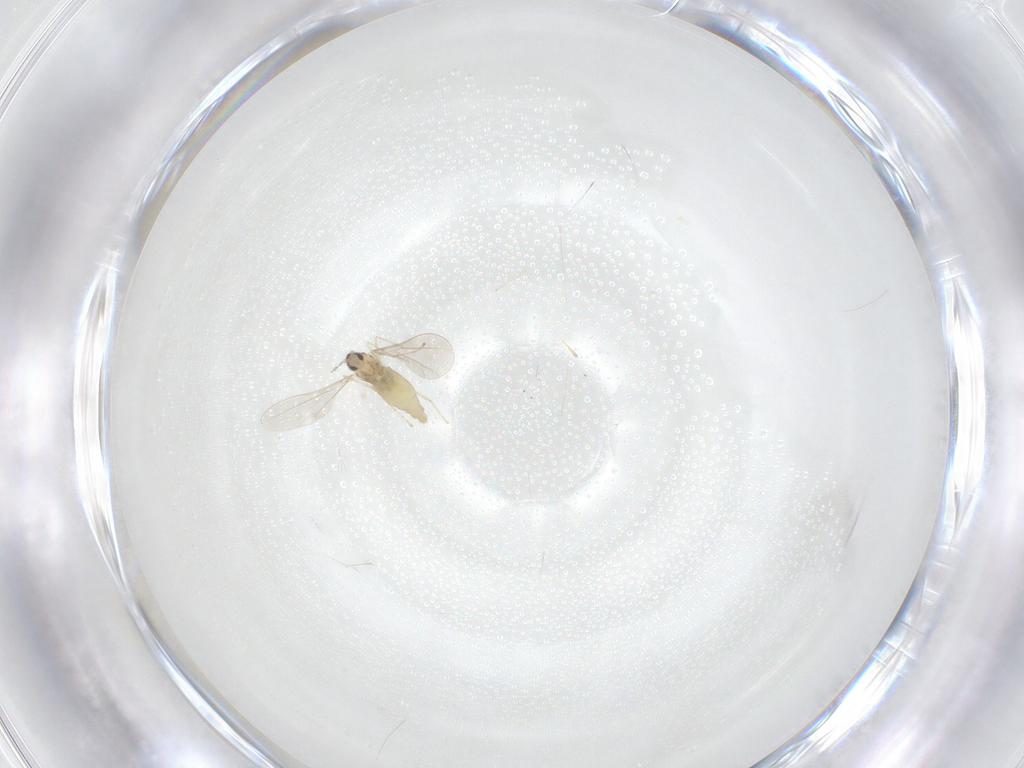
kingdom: Animalia
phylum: Arthropoda
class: Insecta
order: Diptera
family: Cecidomyiidae
